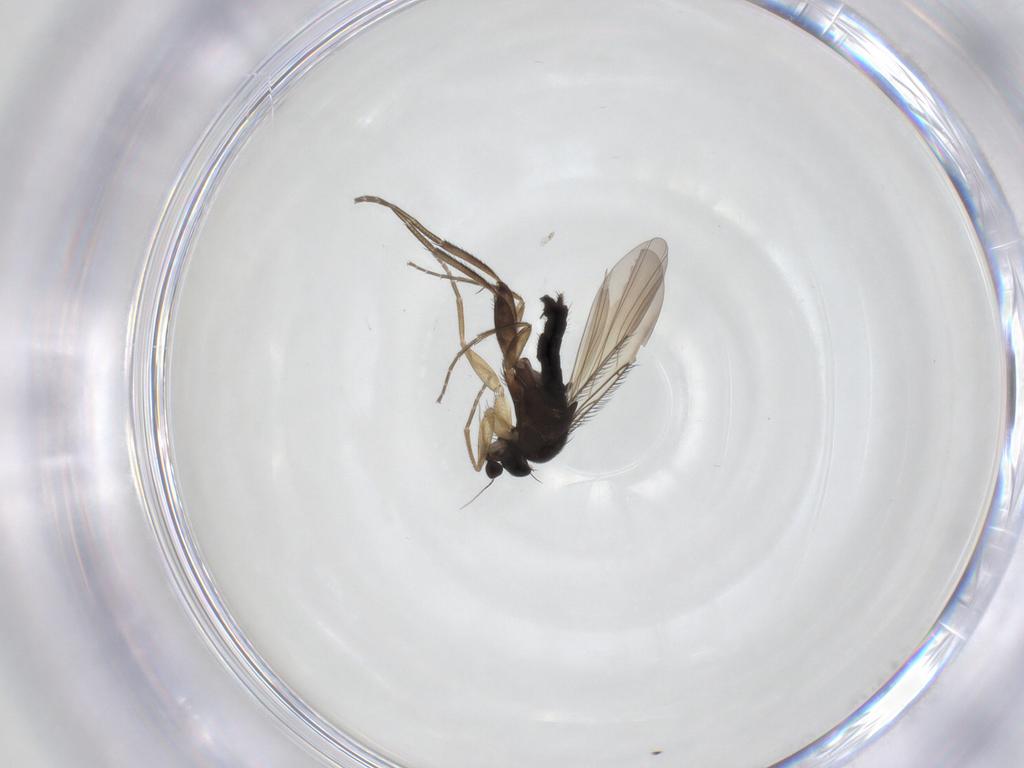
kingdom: Animalia
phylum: Arthropoda
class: Insecta
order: Diptera
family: Phoridae
